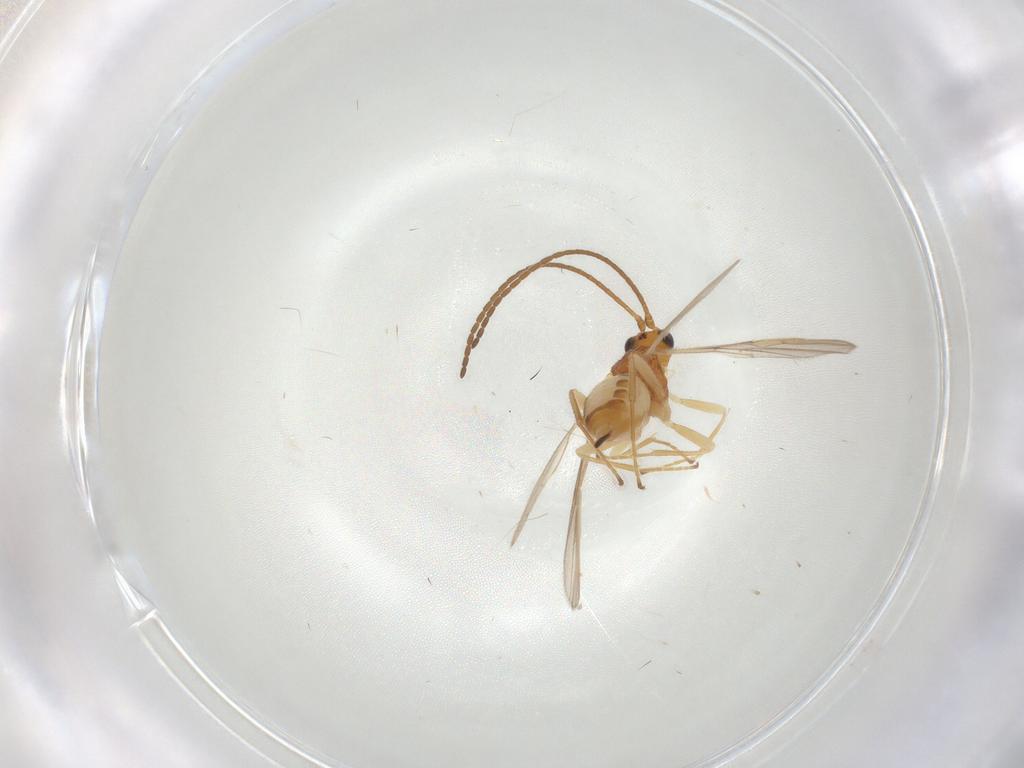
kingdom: Animalia
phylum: Arthropoda
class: Insecta
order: Hymenoptera
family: Braconidae
